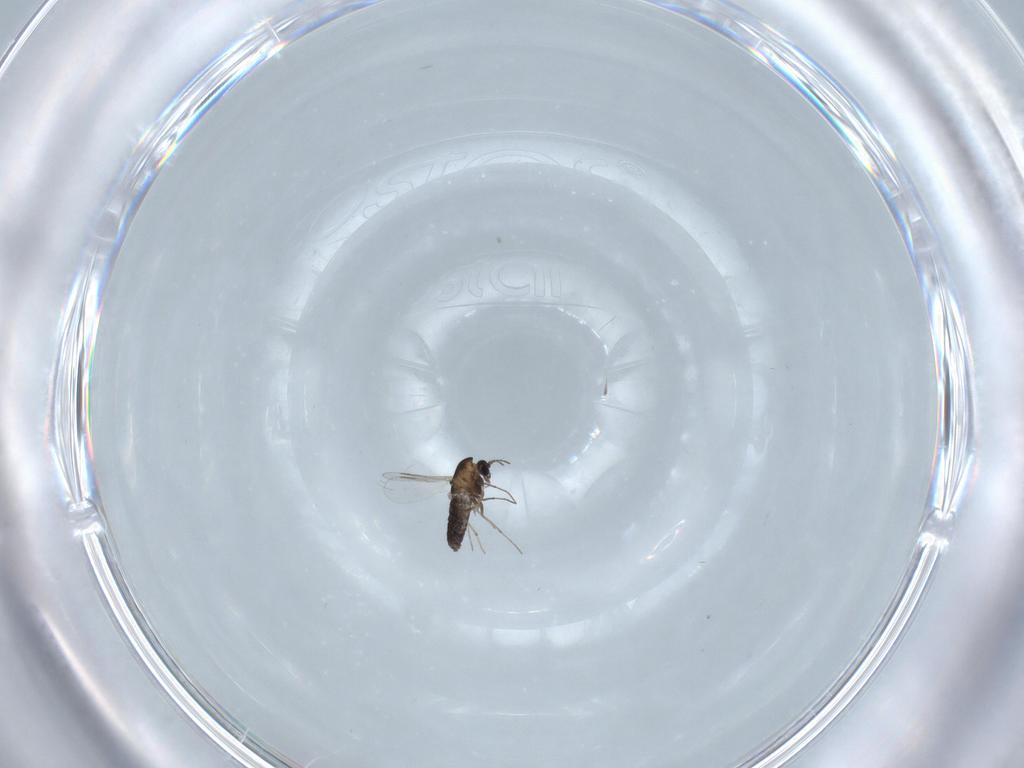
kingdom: Animalia
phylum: Arthropoda
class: Insecta
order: Diptera
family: Chironomidae
